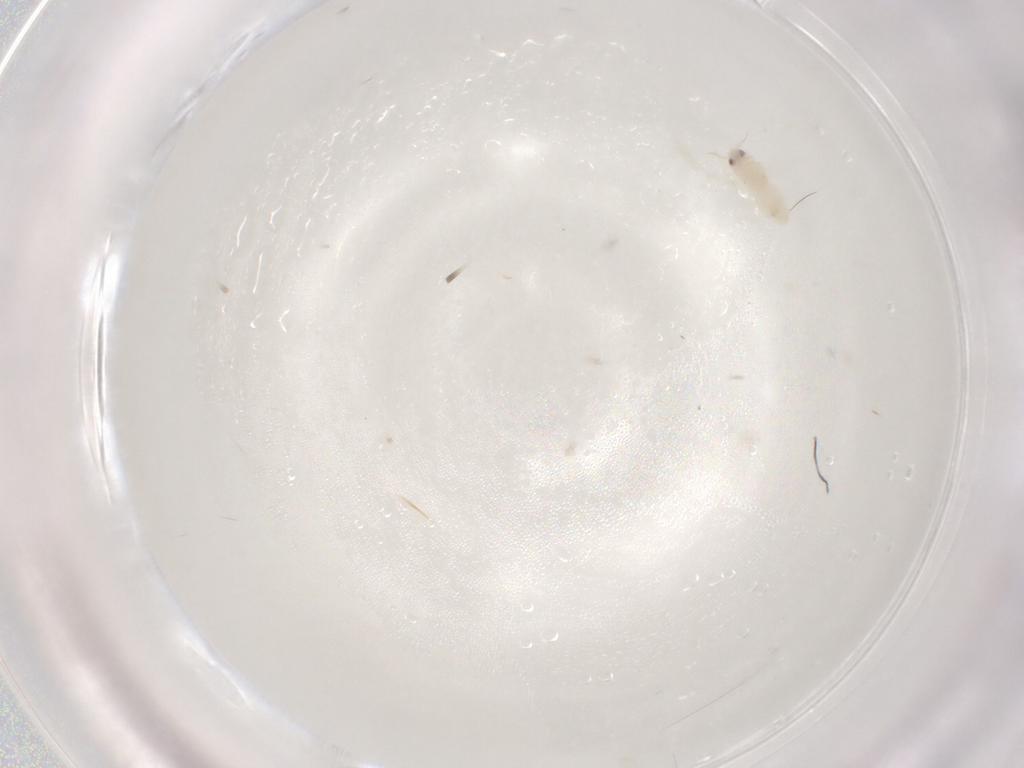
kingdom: Animalia
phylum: Arthropoda
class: Insecta
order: Hemiptera
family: Aleyrodidae
